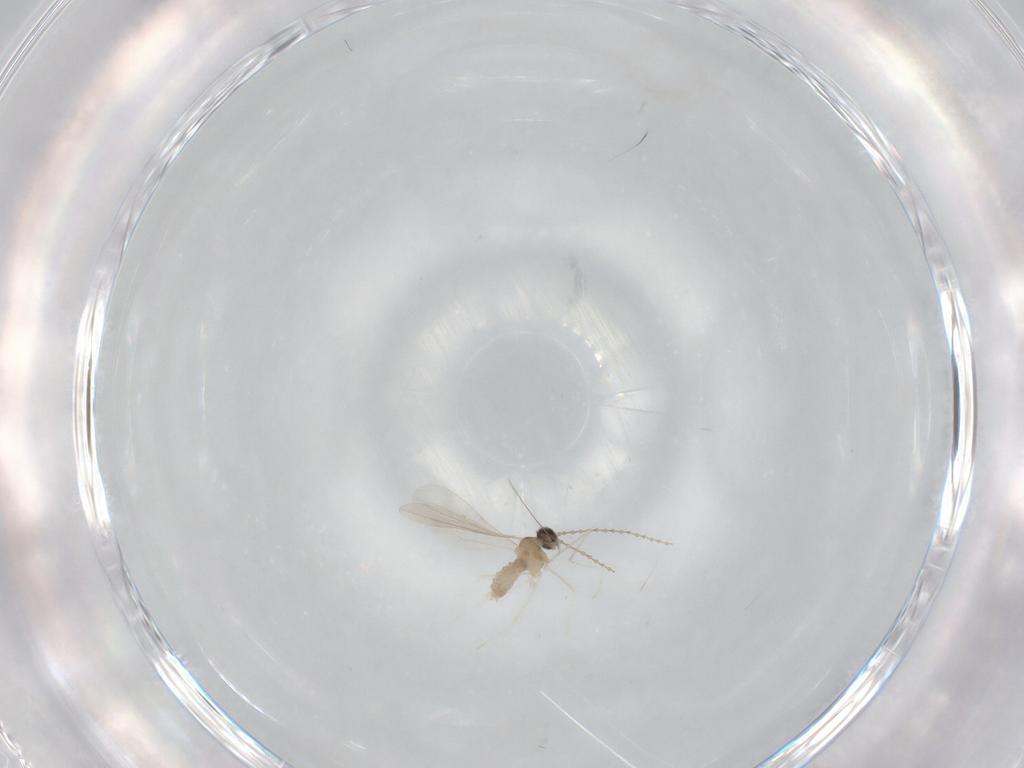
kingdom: Animalia
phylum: Arthropoda
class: Insecta
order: Diptera
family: Cecidomyiidae
